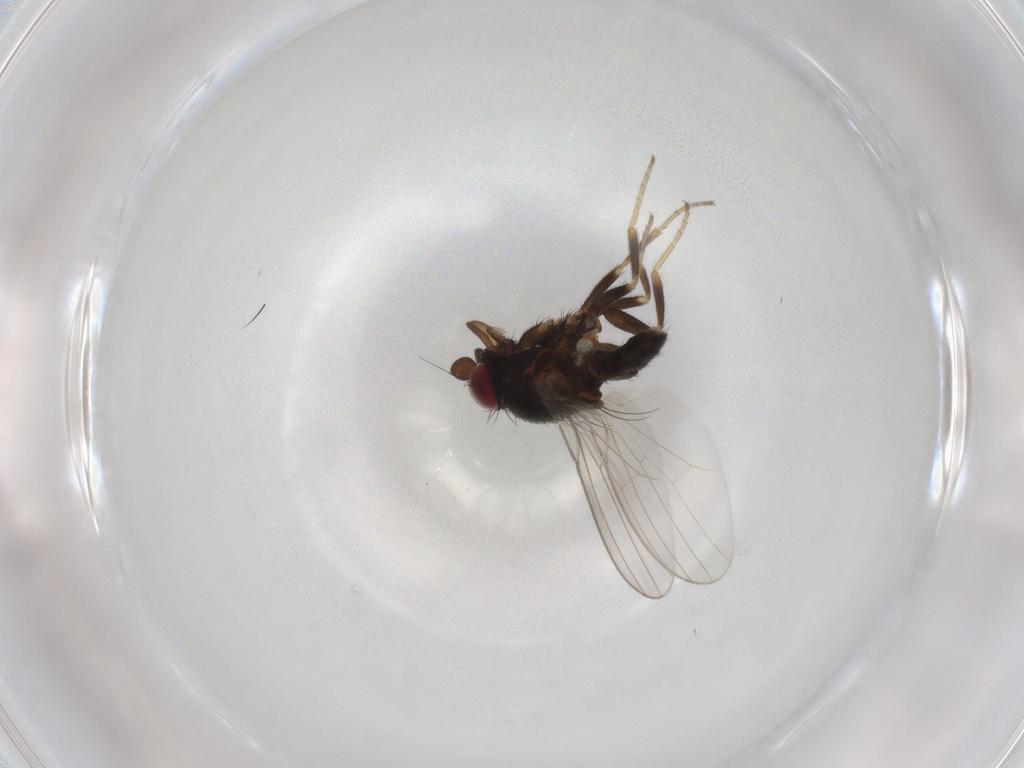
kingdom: Animalia
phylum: Arthropoda
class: Insecta
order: Diptera
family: Milichiidae
